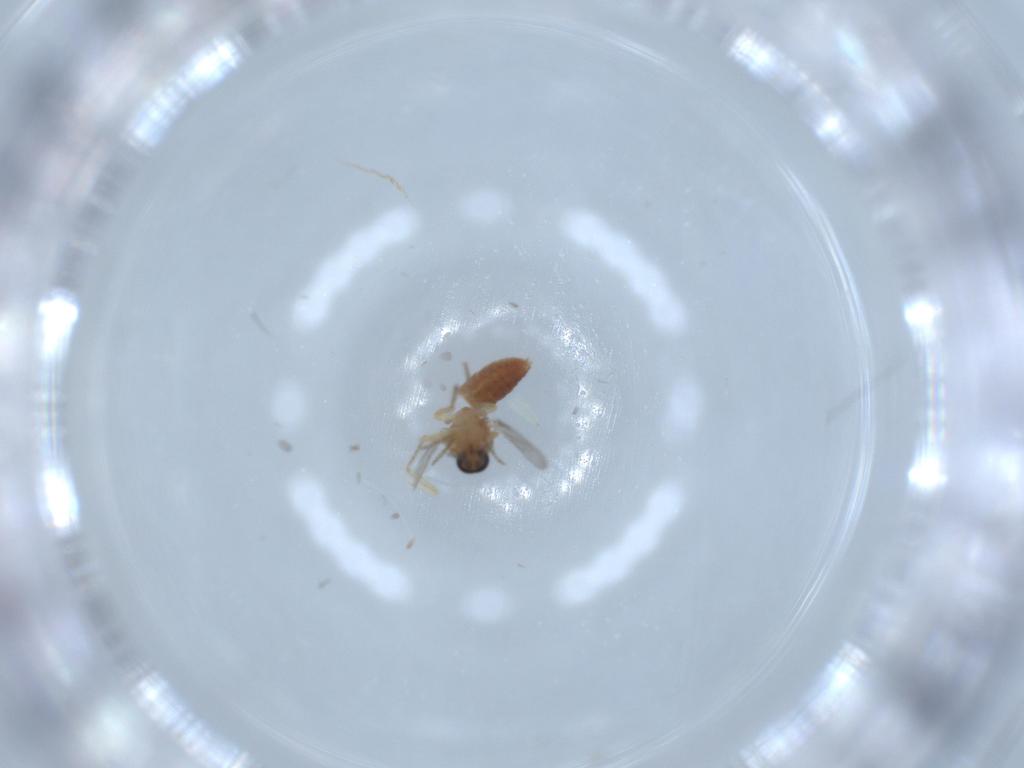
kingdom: Animalia
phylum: Arthropoda
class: Insecta
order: Diptera
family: Ceratopogonidae
